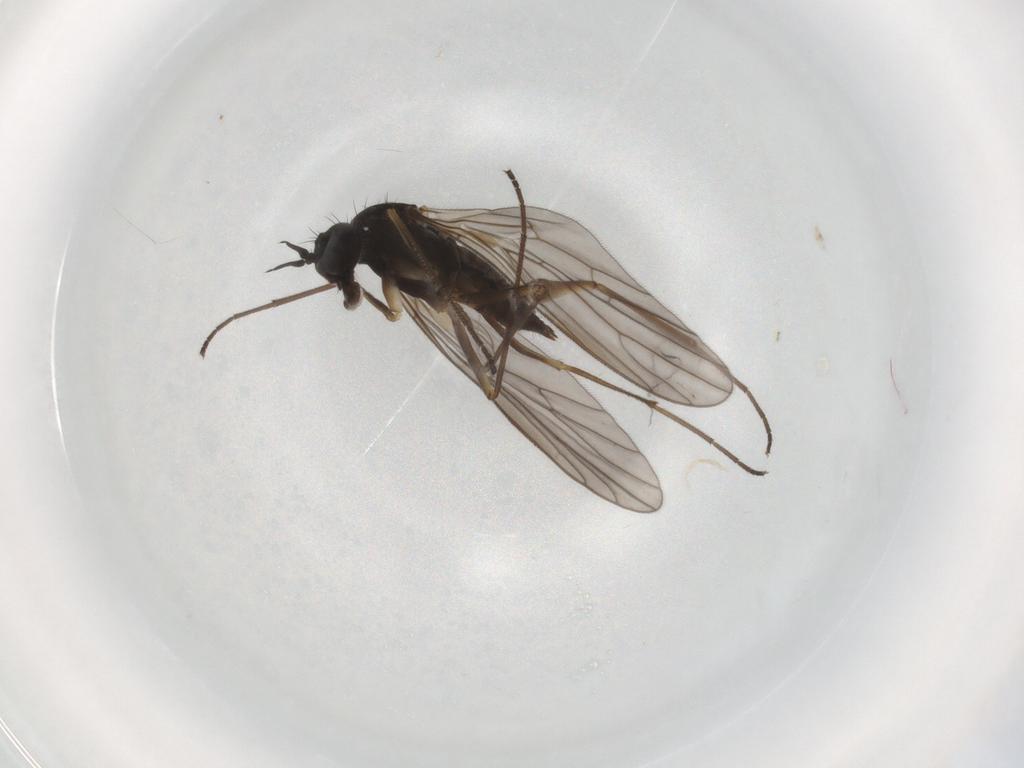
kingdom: Animalia
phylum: Arthropoda
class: Insecta
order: Diptera
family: Empididae
